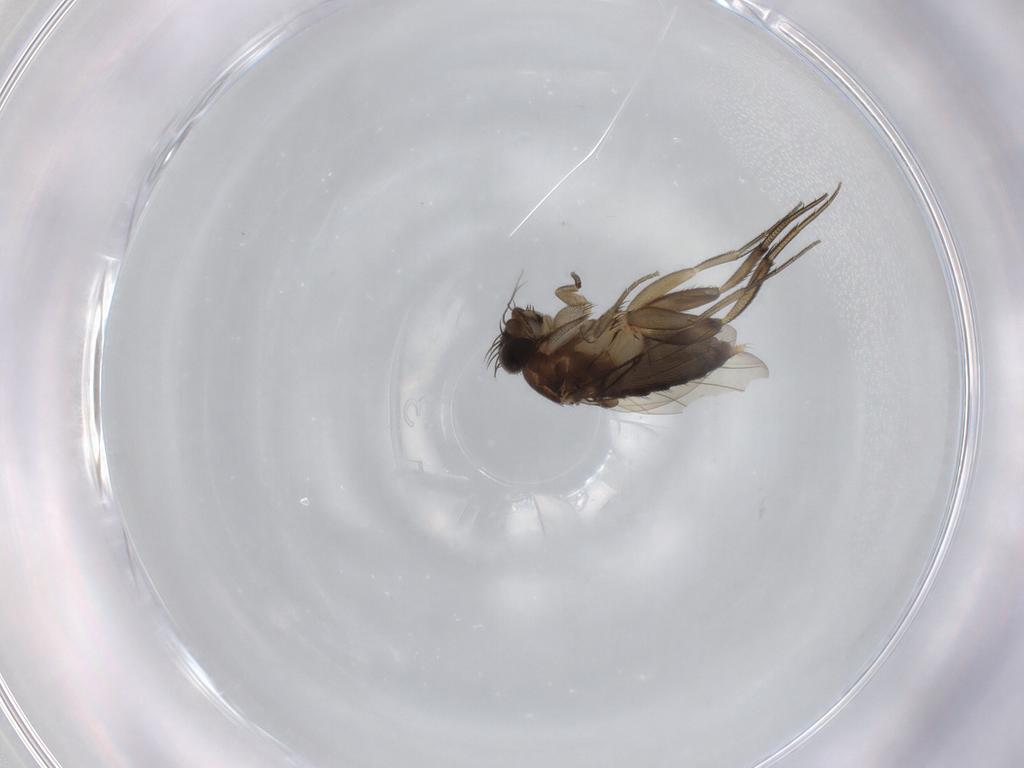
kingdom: Animalia
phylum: Arthropoda
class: Insecta
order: Diptera
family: Phoridae
